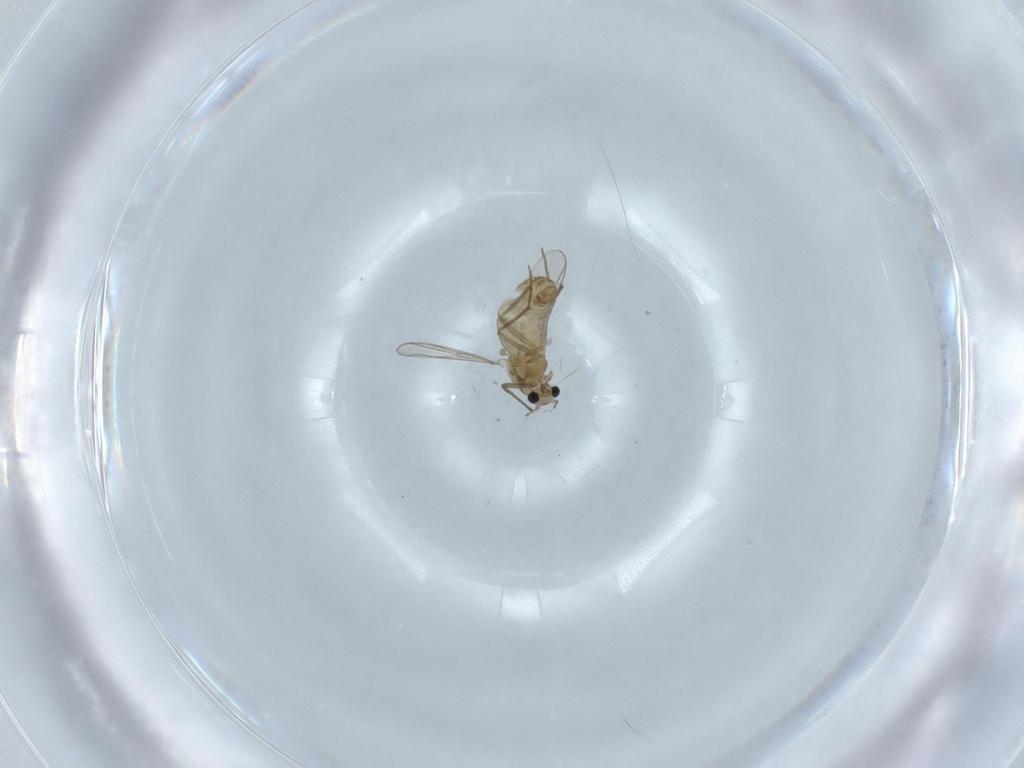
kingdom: Animalia
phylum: Arthropoda
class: Insecta
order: Diptera
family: Chironomidae
